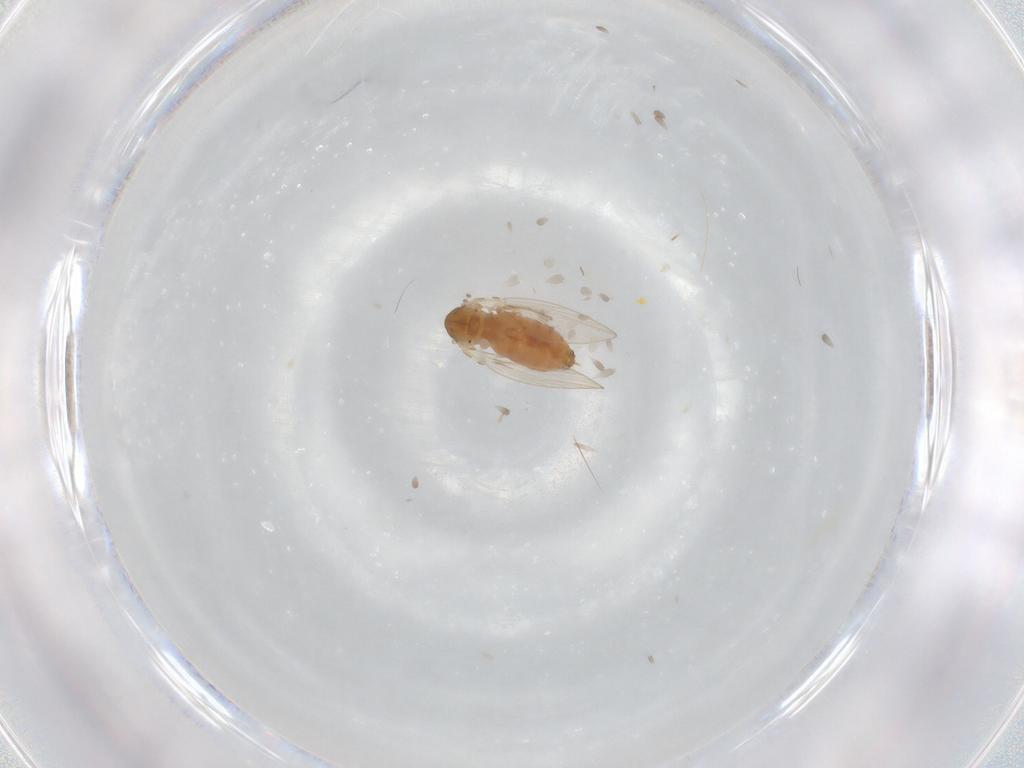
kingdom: Animalia
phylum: Arthropoda
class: Insecta
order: Diptera
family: Psychodidae
